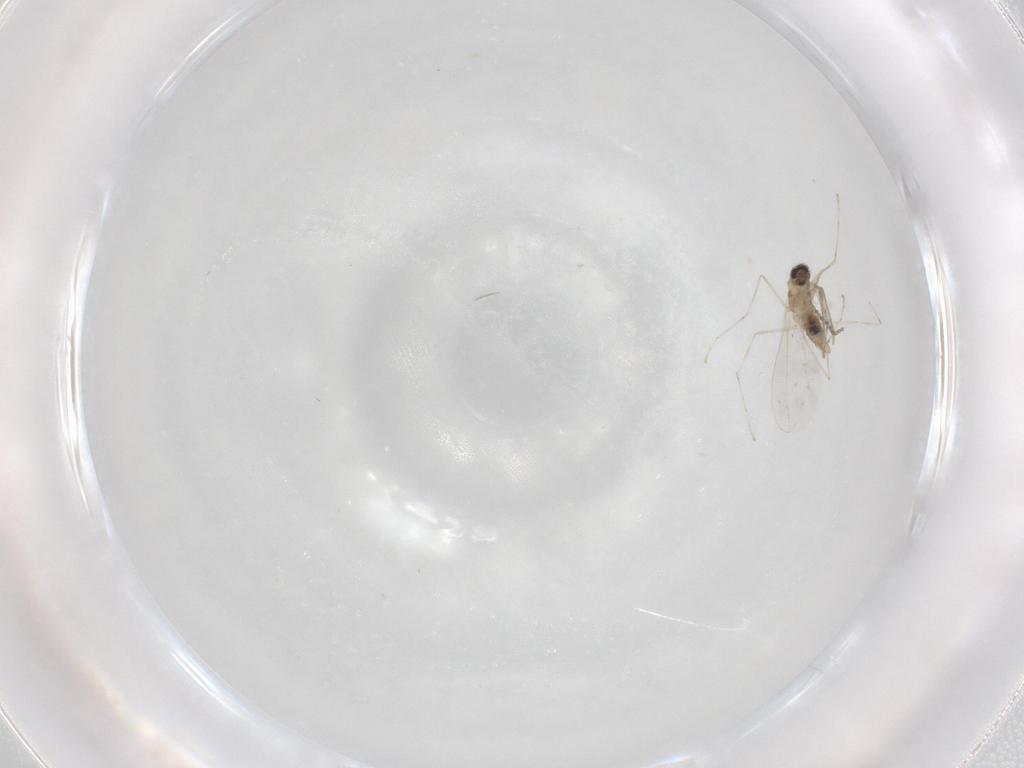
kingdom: Animalia
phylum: Arthropoda
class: Insecta
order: Diptera
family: Cecidomyiidae
